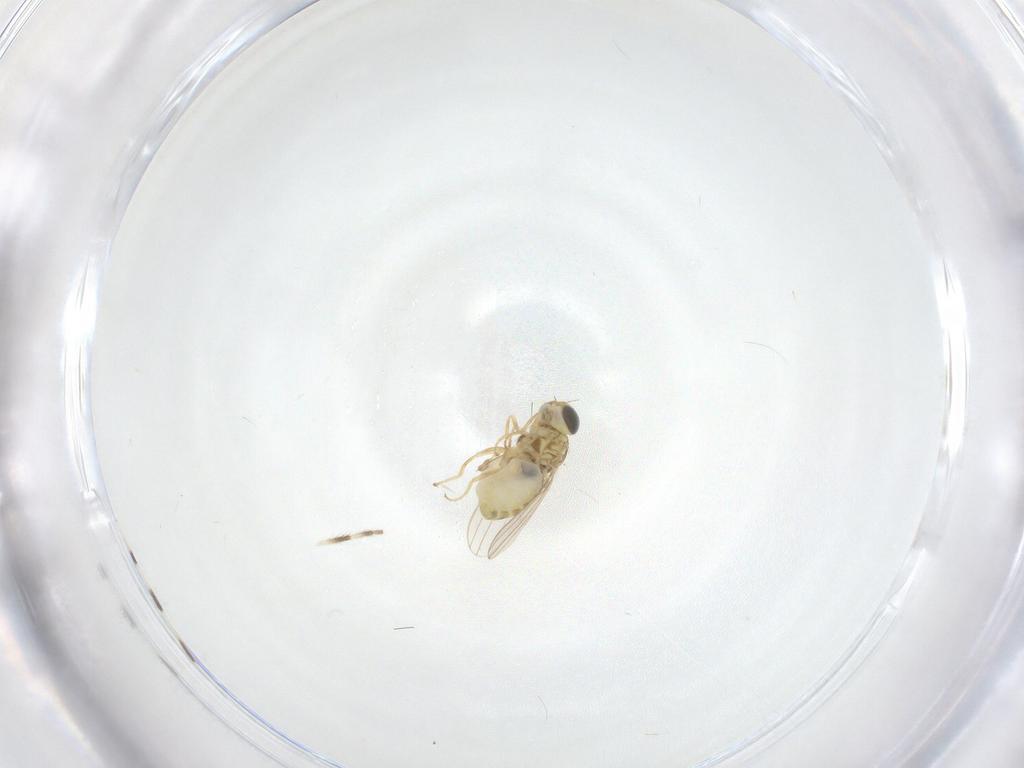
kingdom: Animalia
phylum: Arthropoda
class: Insecta
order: Diptera
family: Chyromyidae
